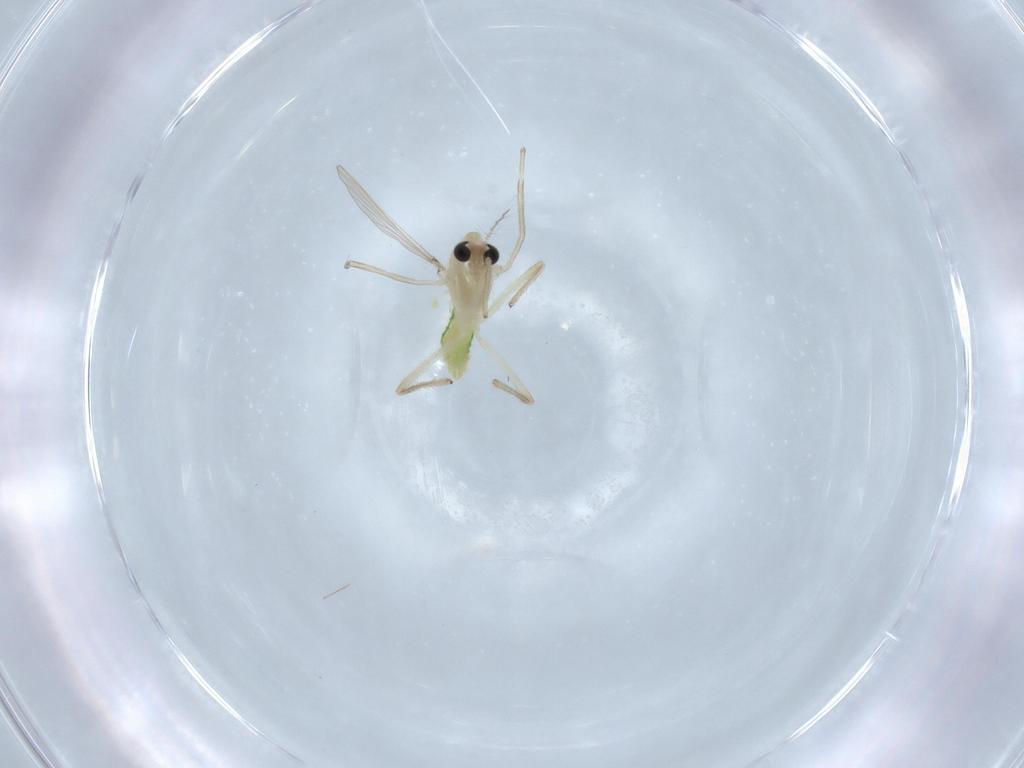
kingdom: Animalia
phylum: Arthropoda
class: Insecta
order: Diptera
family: Chironomidae
